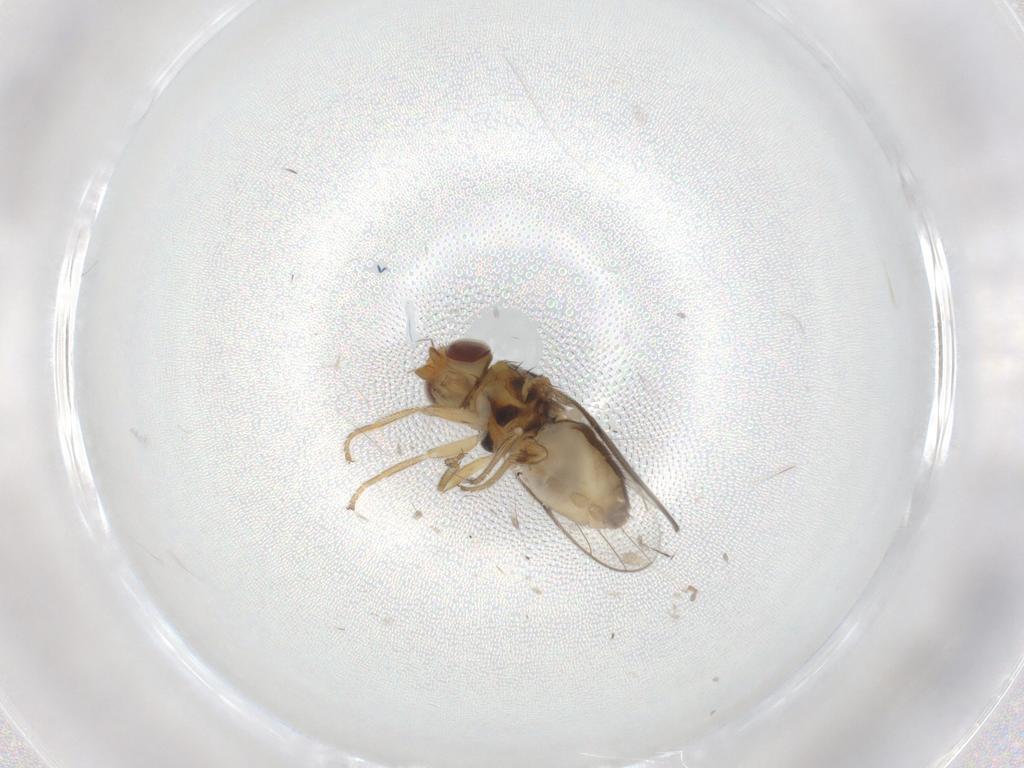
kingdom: Animalia
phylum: Arthropoda
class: Insecta
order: Diptera
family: Chloropidae
